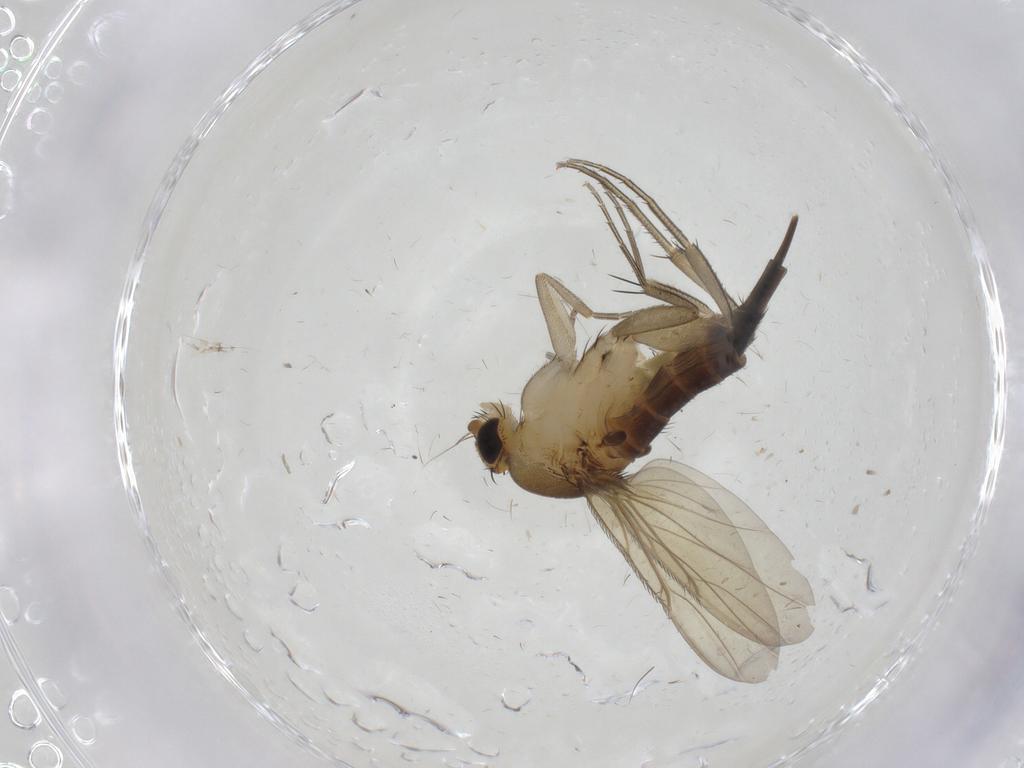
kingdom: Animalia
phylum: Arthropoda
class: Insecta
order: Diptera
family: Phoridae
